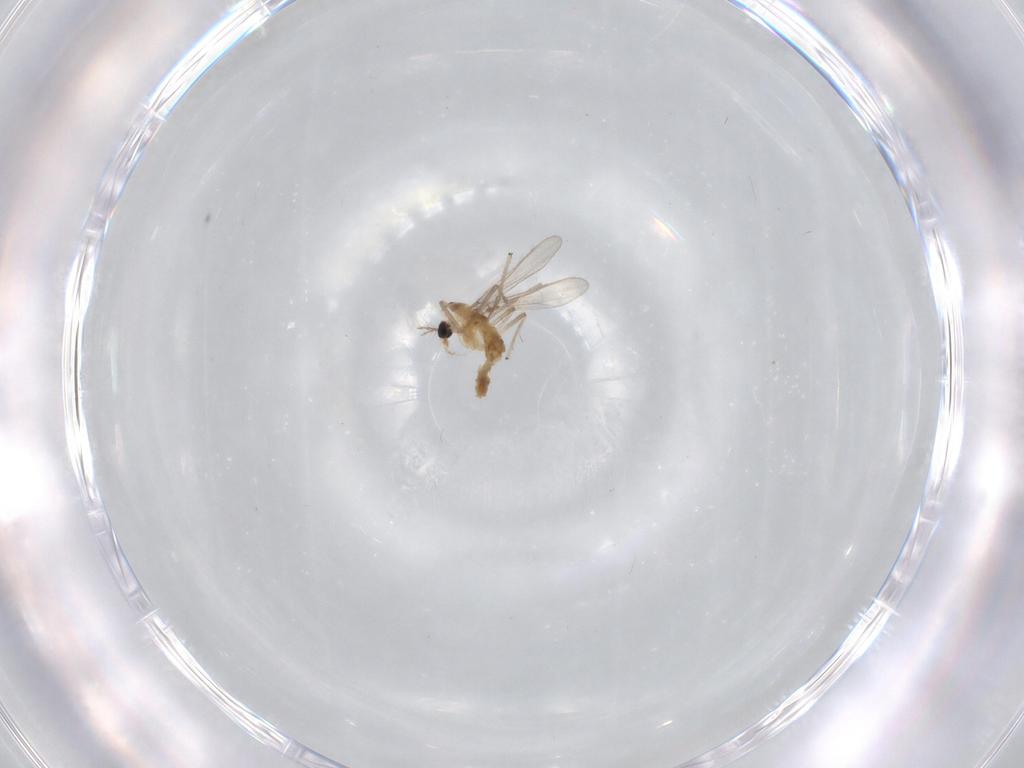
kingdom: Animalia
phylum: Arthropoda
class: Insecta
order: Diptera
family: Chironomidae
